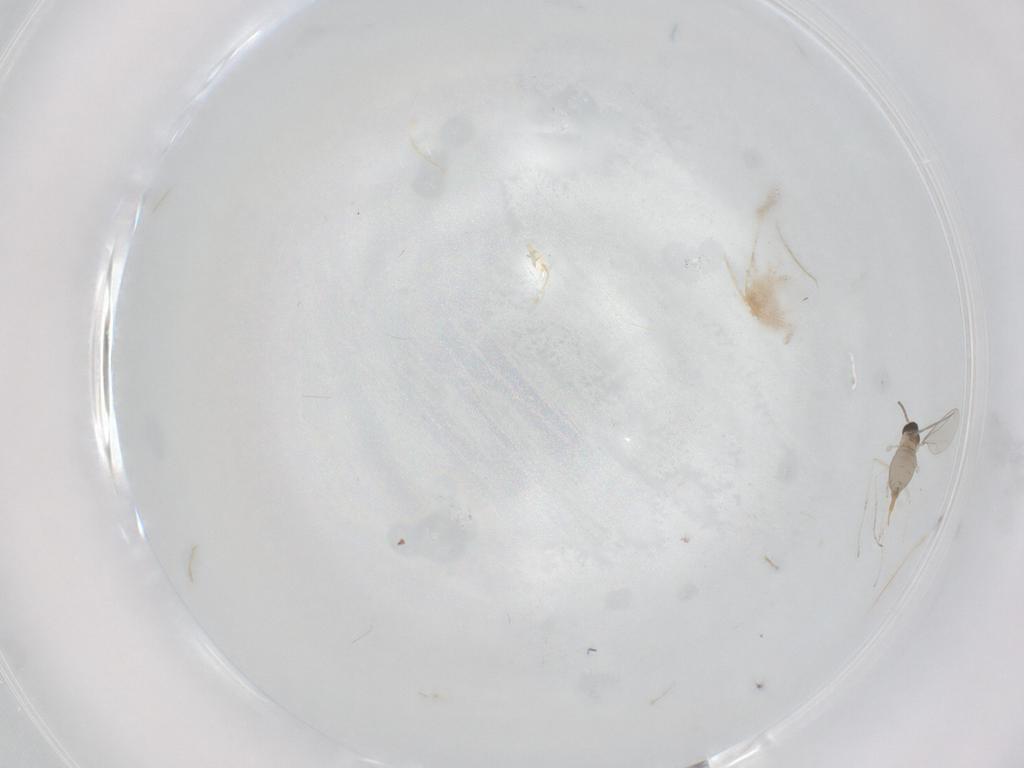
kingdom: Animalia
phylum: Arthropoda
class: Insecta
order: Diptera
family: Cecidomyiidae
